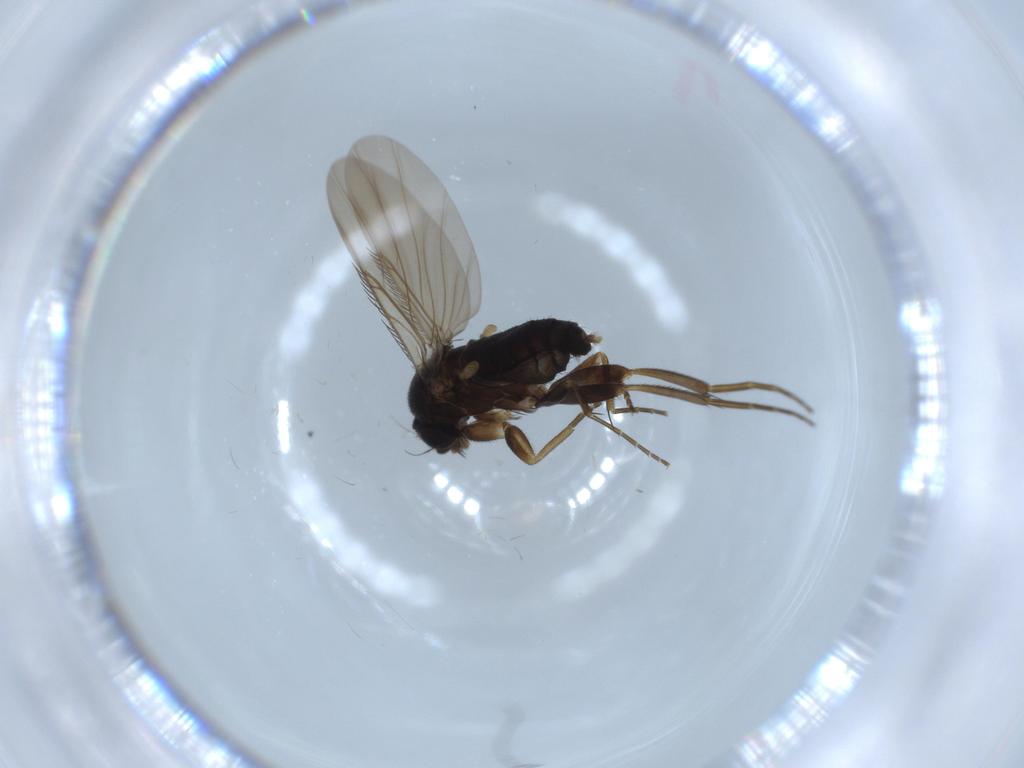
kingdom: Animalia
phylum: Arthropoda
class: Insecta
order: Diptera
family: Phoridae
